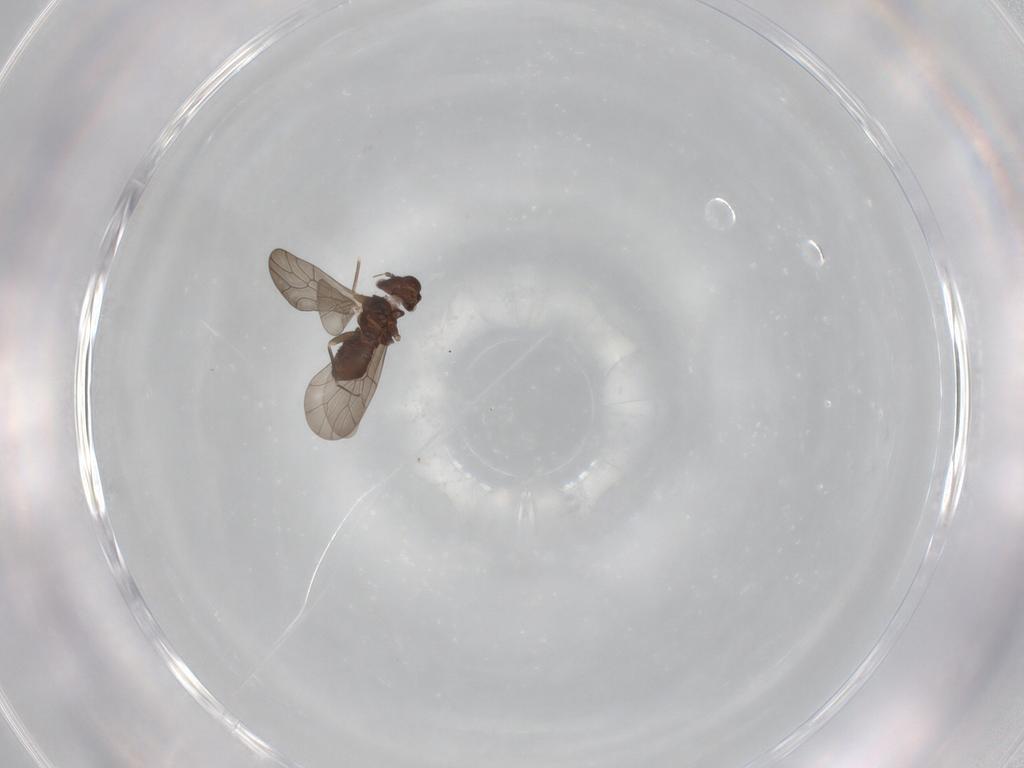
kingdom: Animalia
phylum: Arthropoda
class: Insecta
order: Psocodea
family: Lepidopsocidae
